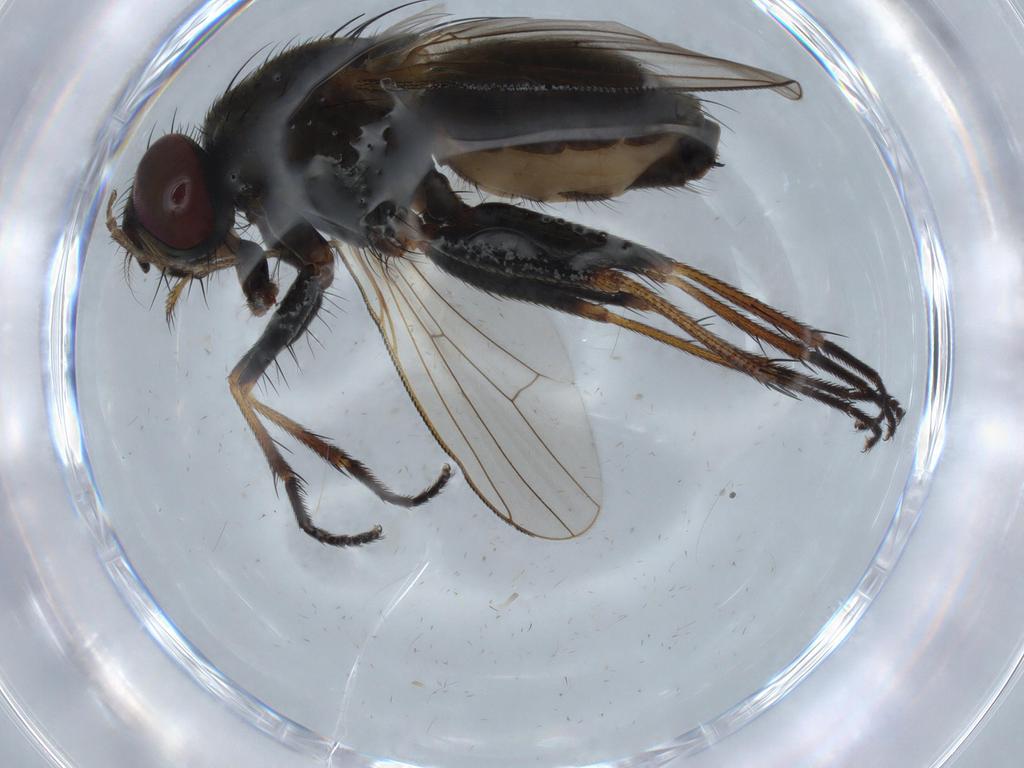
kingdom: Animalia
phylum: Arthropoda
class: Insecta
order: Diptera
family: Muscidae
